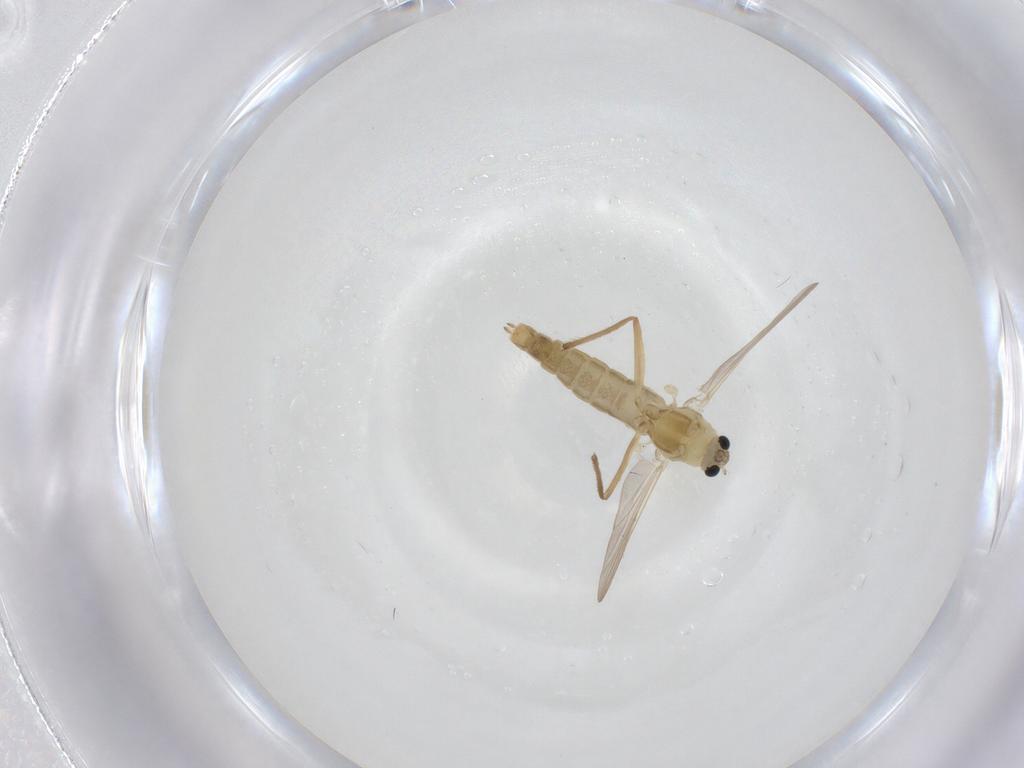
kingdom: Animalia
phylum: Arthropoda
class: Insecta
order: Diptera
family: Chironomidae
